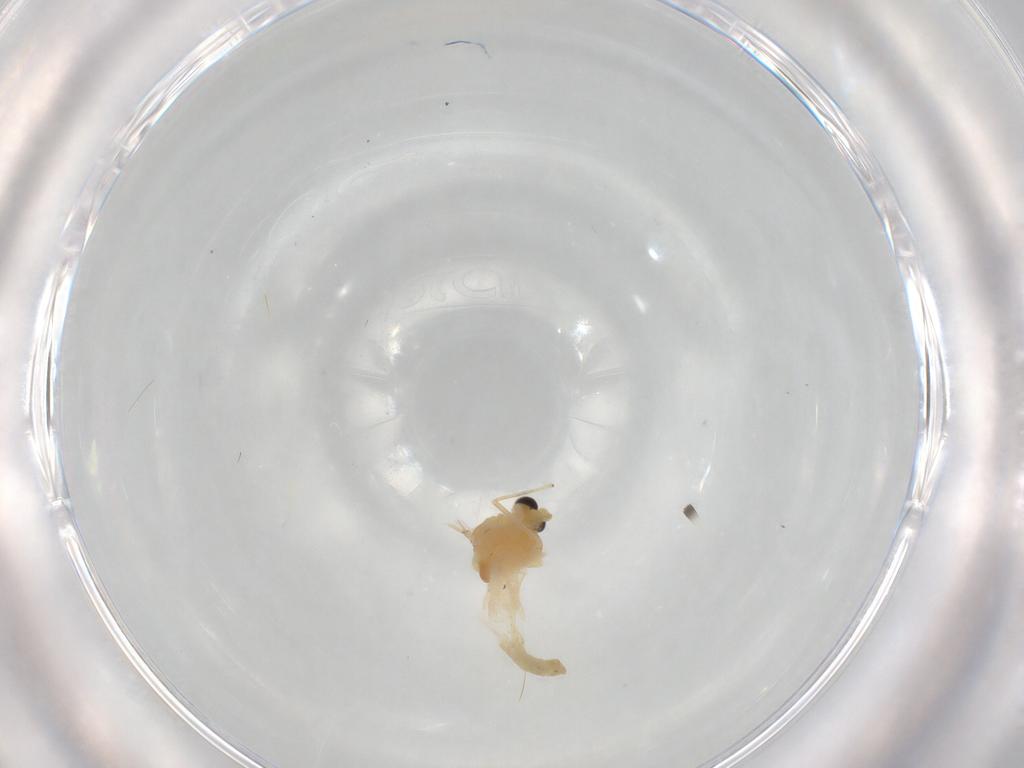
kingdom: Animalia
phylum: Arthropoda
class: Insecta
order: Diptera
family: Chironomidae
